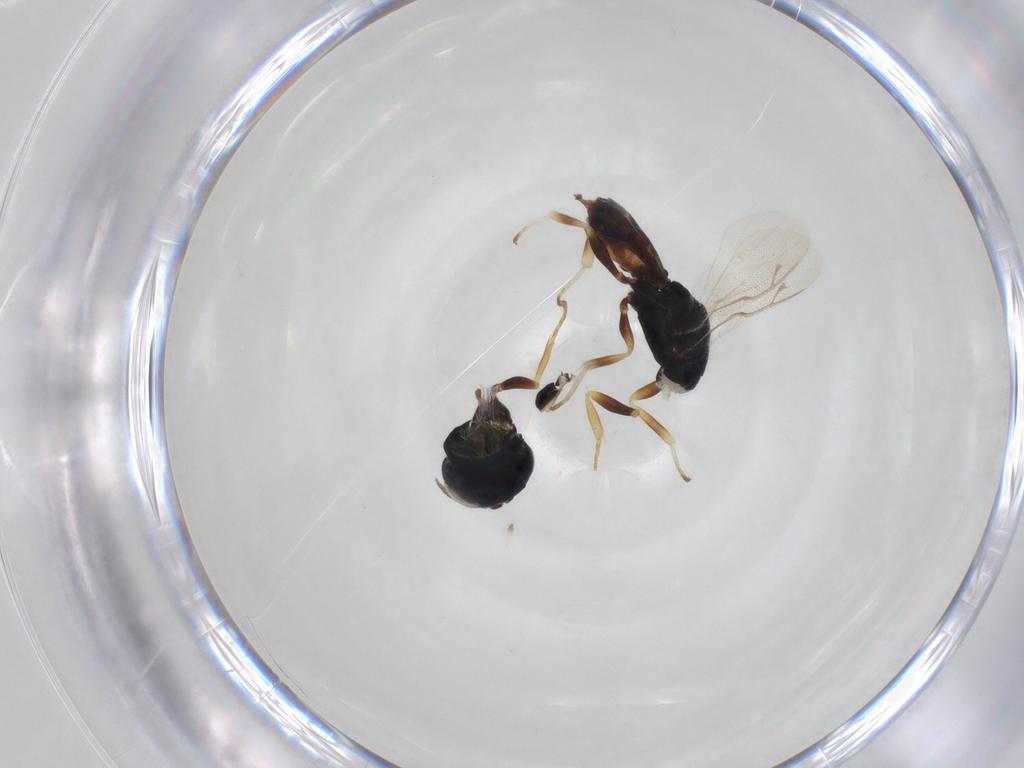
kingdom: Animalia
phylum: Arthropoda
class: Insecta
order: Hymenoptera
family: Pteromalidae
